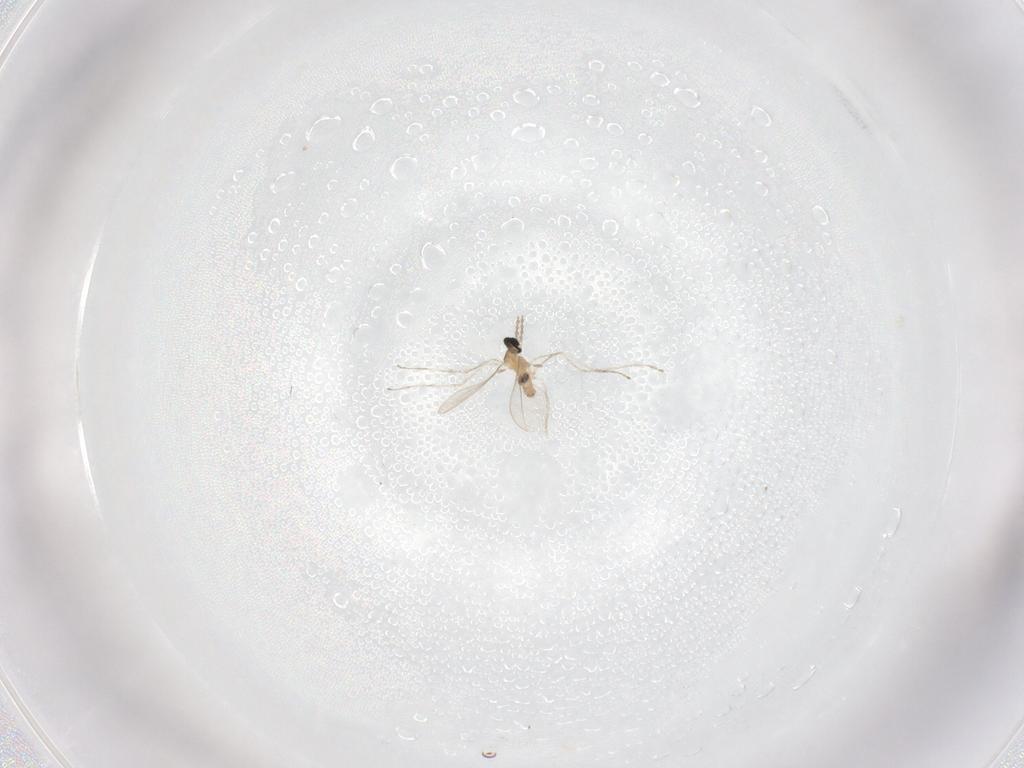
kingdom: Animalia
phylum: Arthropoda
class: Insecta
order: Diptera
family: Cecidomyiidae
